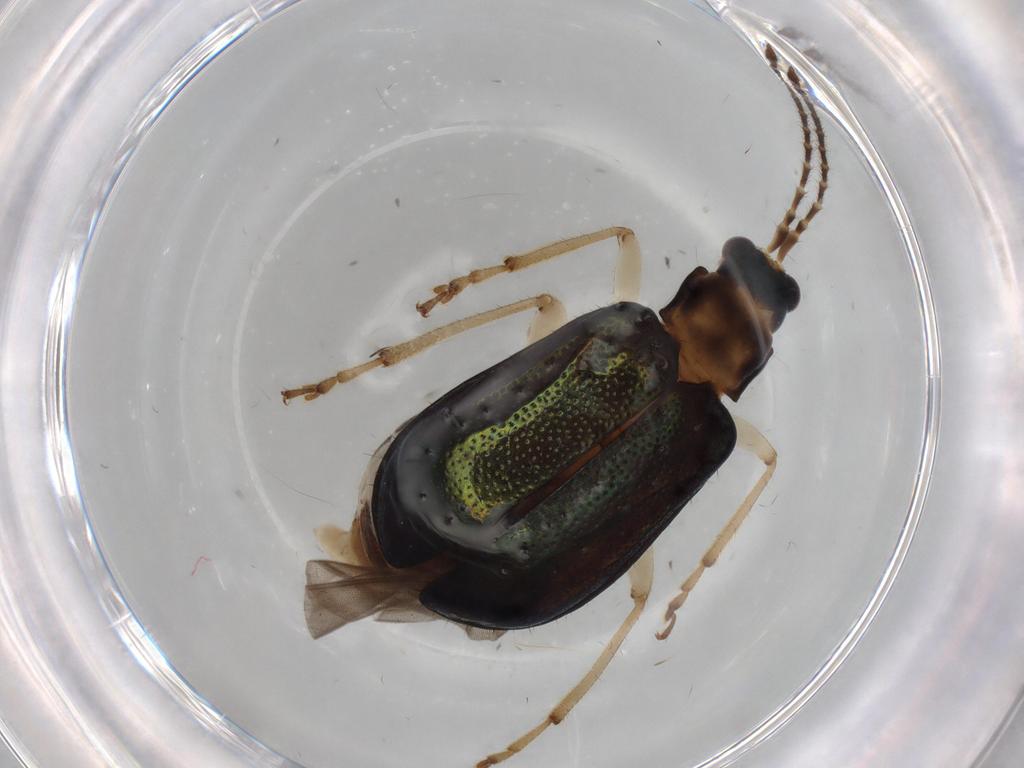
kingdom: Animalia
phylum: Arthropoda
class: Insecta
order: Coleoptera
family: Chrysomelidae
